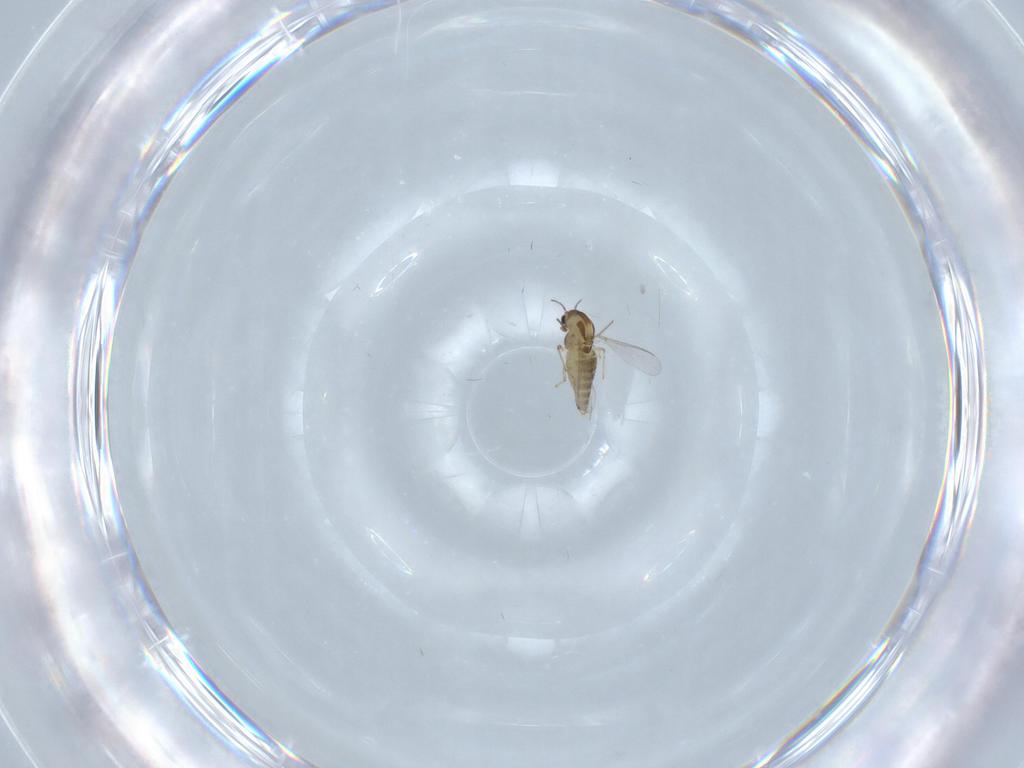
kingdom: Animalia
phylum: Arthropoda
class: Insecta
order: Diptera
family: Chironomidae
